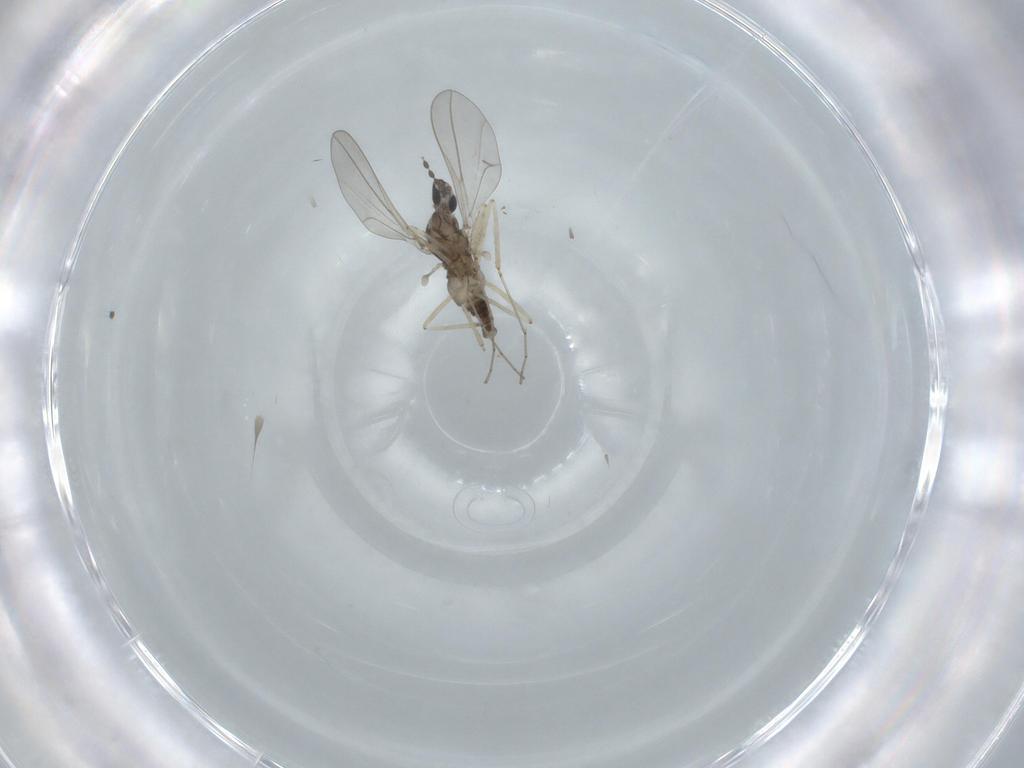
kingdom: Animalia
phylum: Arthropoda
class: Insecta
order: Diptera
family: Cecidomyiidae
